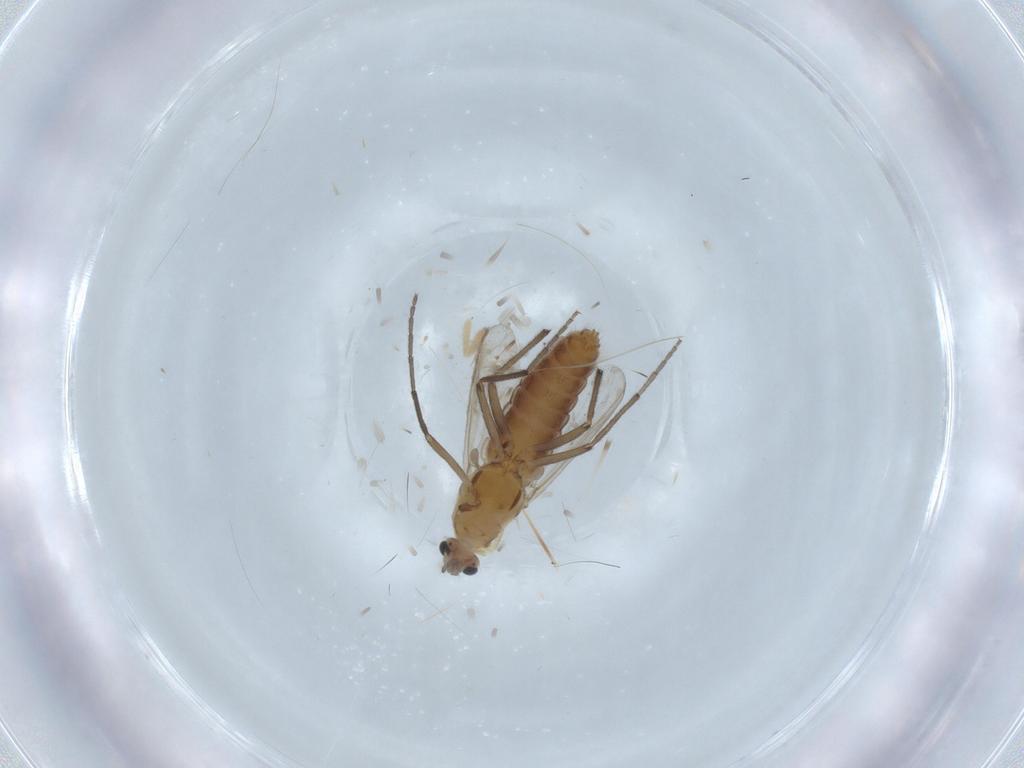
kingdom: Animalia
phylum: Arthropoda
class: Insecta
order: Diptera
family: Chironomidae
